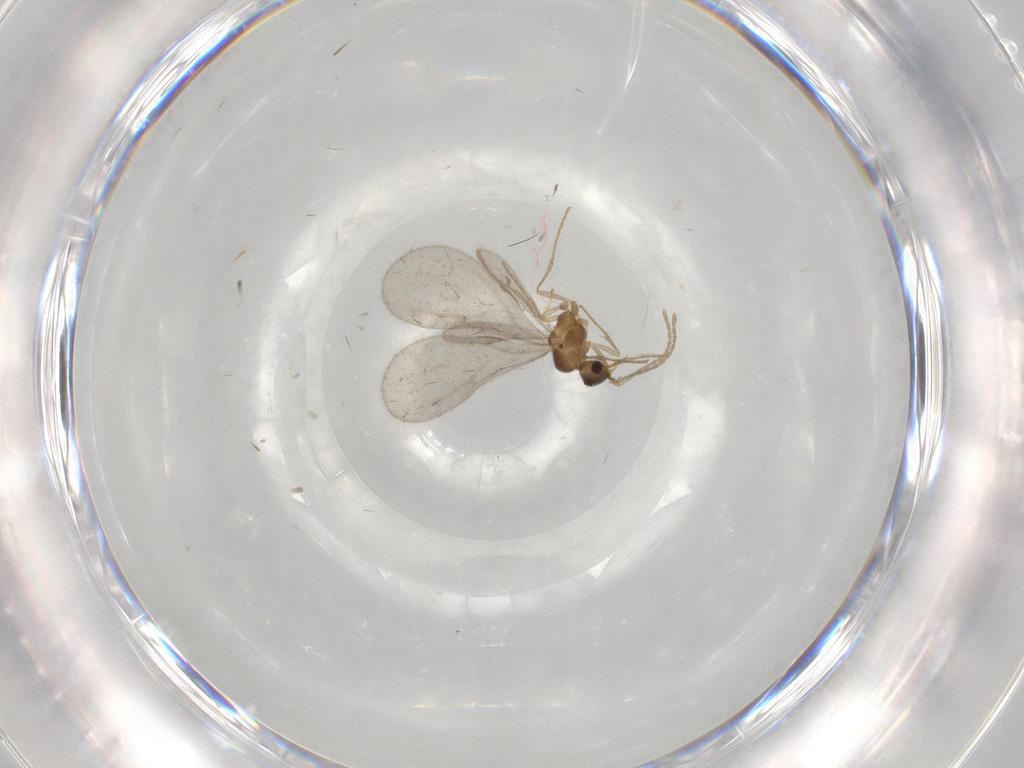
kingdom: Animalia
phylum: Arthropoda
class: Insecta
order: Hymenoptera
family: Formicidae
